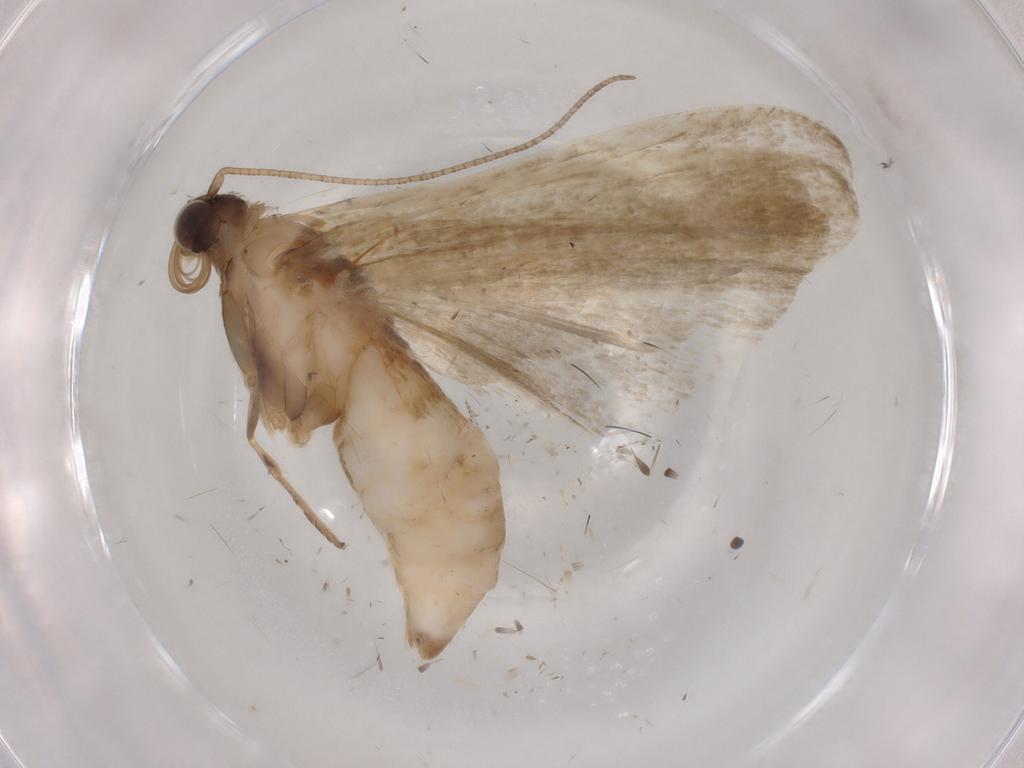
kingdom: Animalia
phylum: Arthropoda
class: Insecta
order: Lepidoptera
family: Noctuidae
